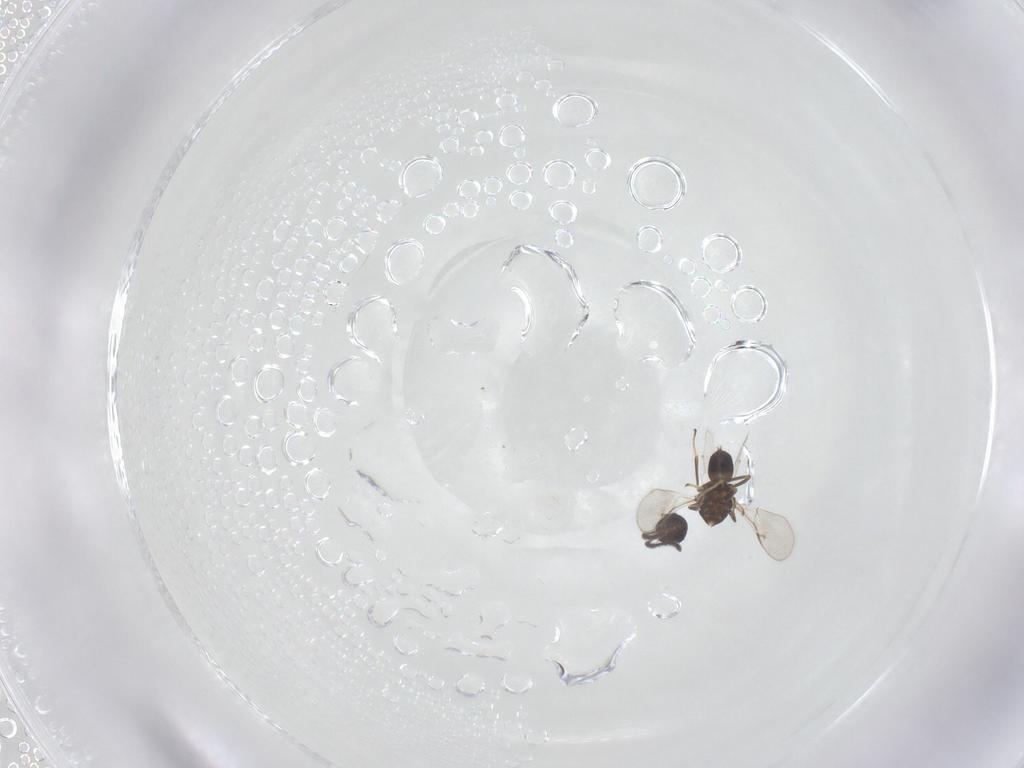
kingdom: Animalia
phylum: Arthropoda
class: Insecta
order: Hymenoptera
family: Encyrtidae
